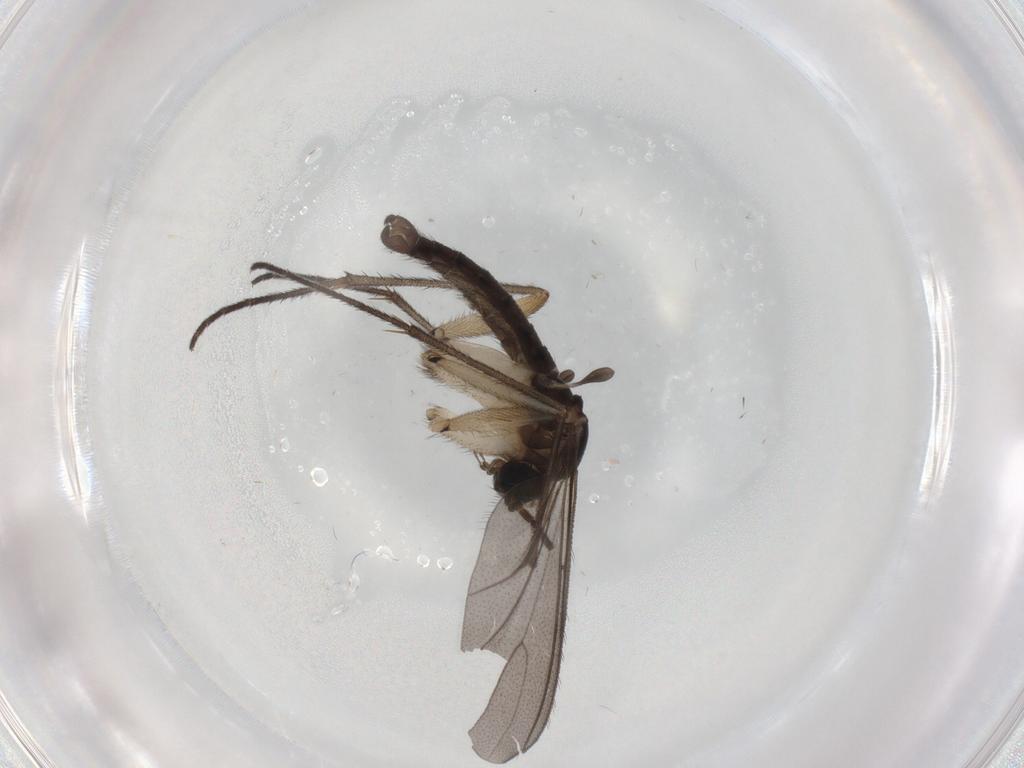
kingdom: Animalia
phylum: Arthropoda
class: Insecta
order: Diptera
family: Sciaridae
